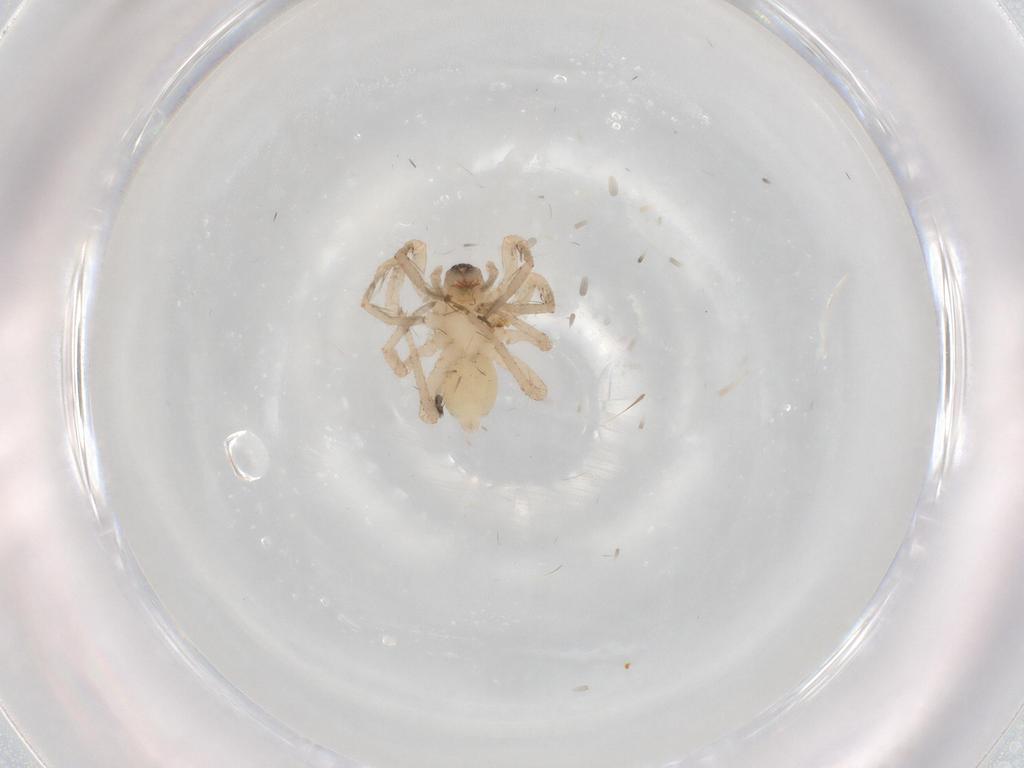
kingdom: Animalia
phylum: Arthropoda
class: Arachnida
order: Araneae
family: Anyphaenidae
